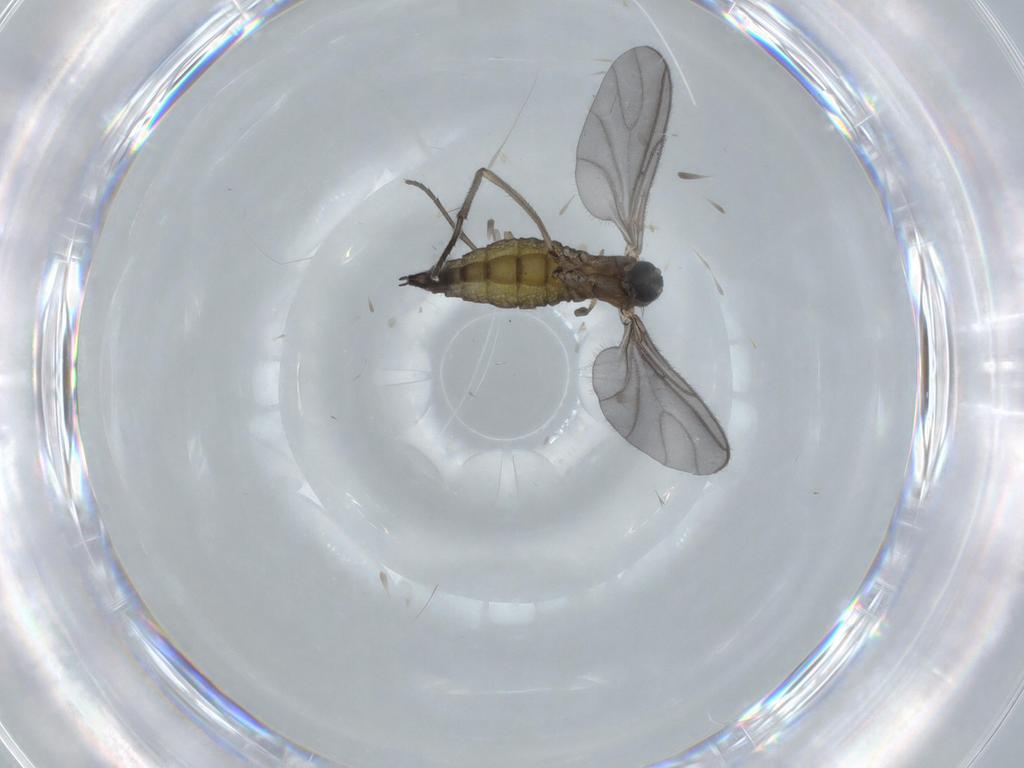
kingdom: Animalia
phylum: Arthropoda
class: Insecta
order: Diptera
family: Sciaridae
